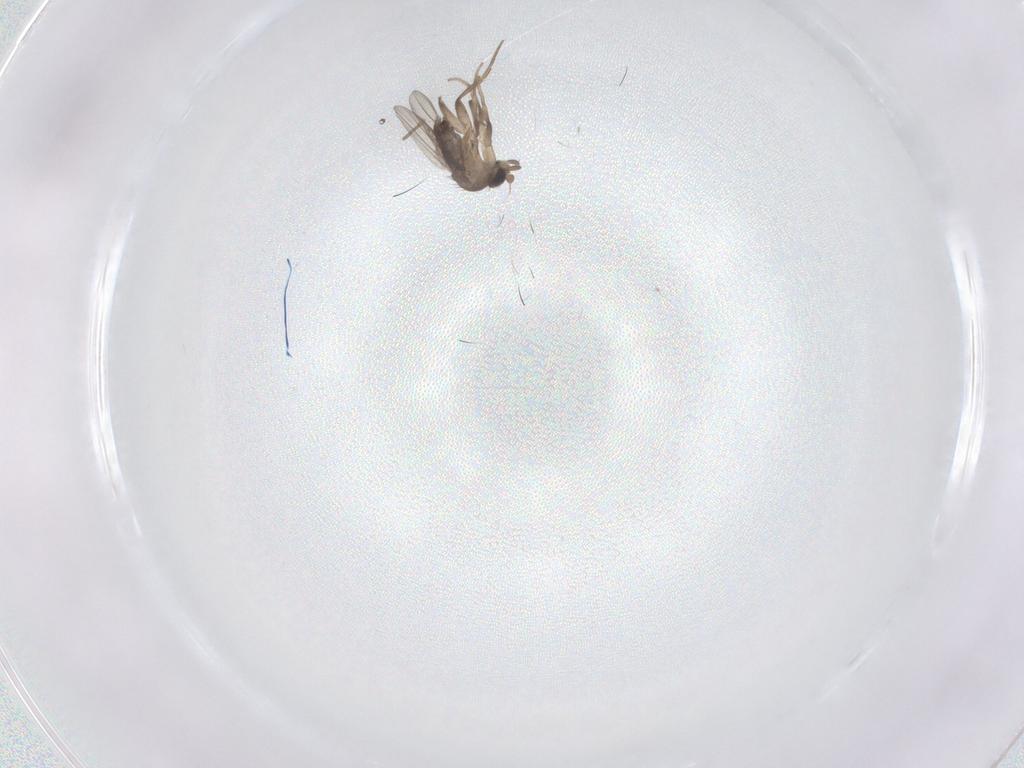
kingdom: Animalia
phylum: Arthropoda
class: Insecta
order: Diptera
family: Phoridae
